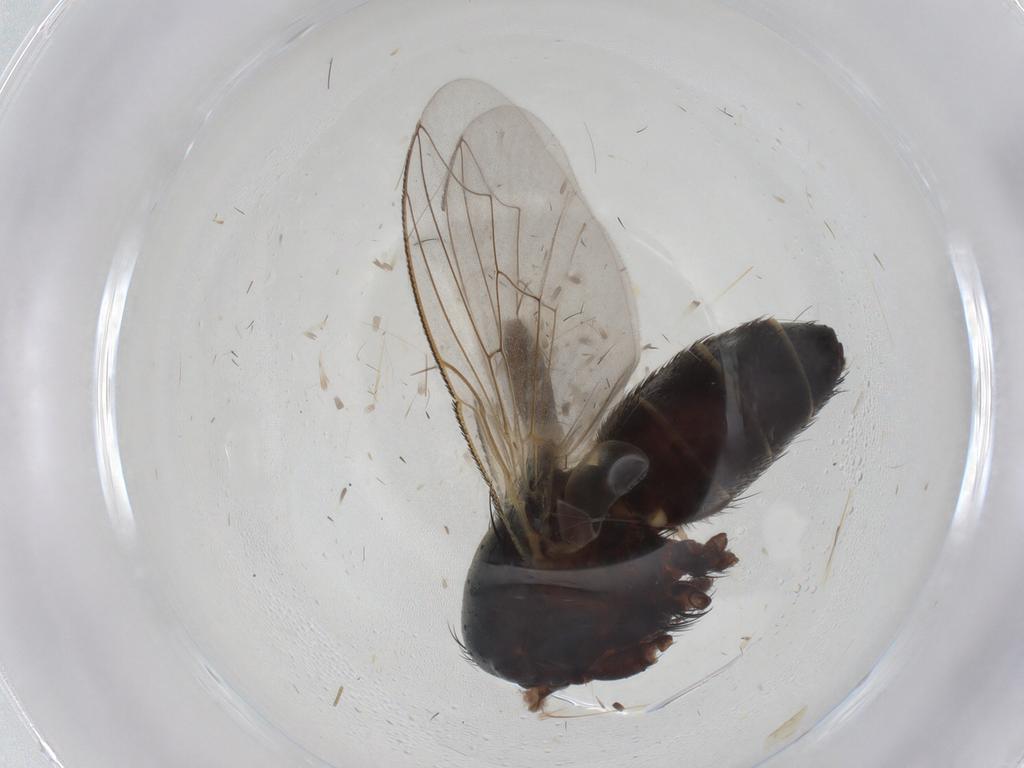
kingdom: Animalia
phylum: Arthropoda
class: Insecta
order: Diptera
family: Sarcophagidae
